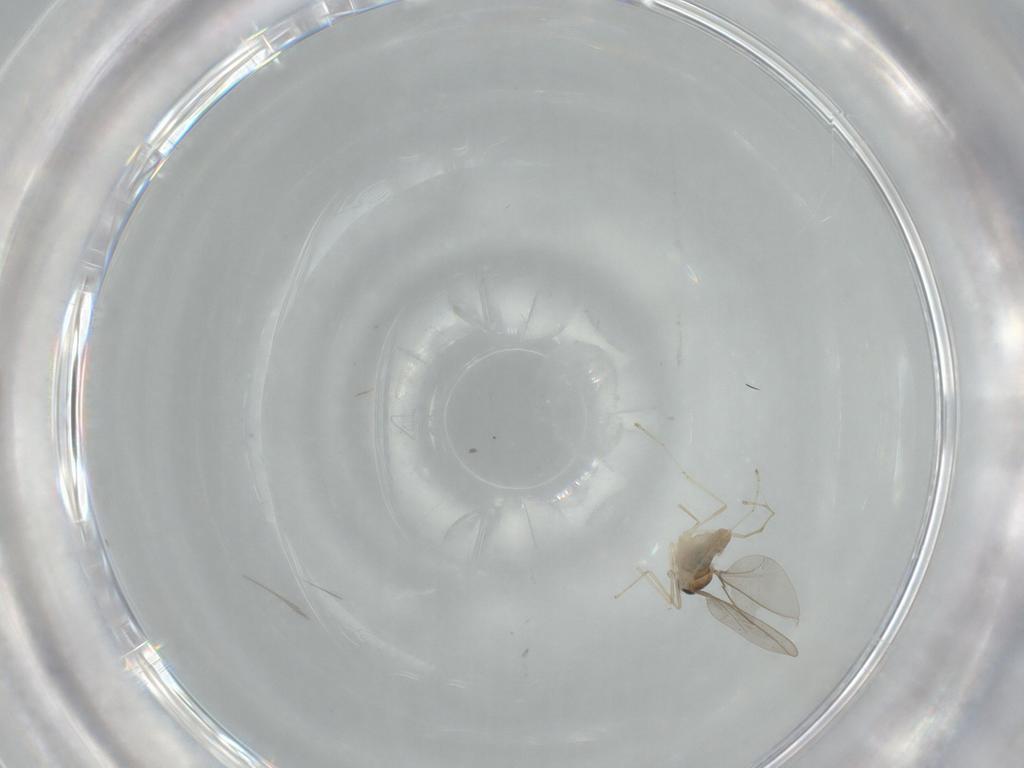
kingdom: Animalia
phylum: Arthropoda
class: Insecta
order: Diptera
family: Cecidomyiidae
